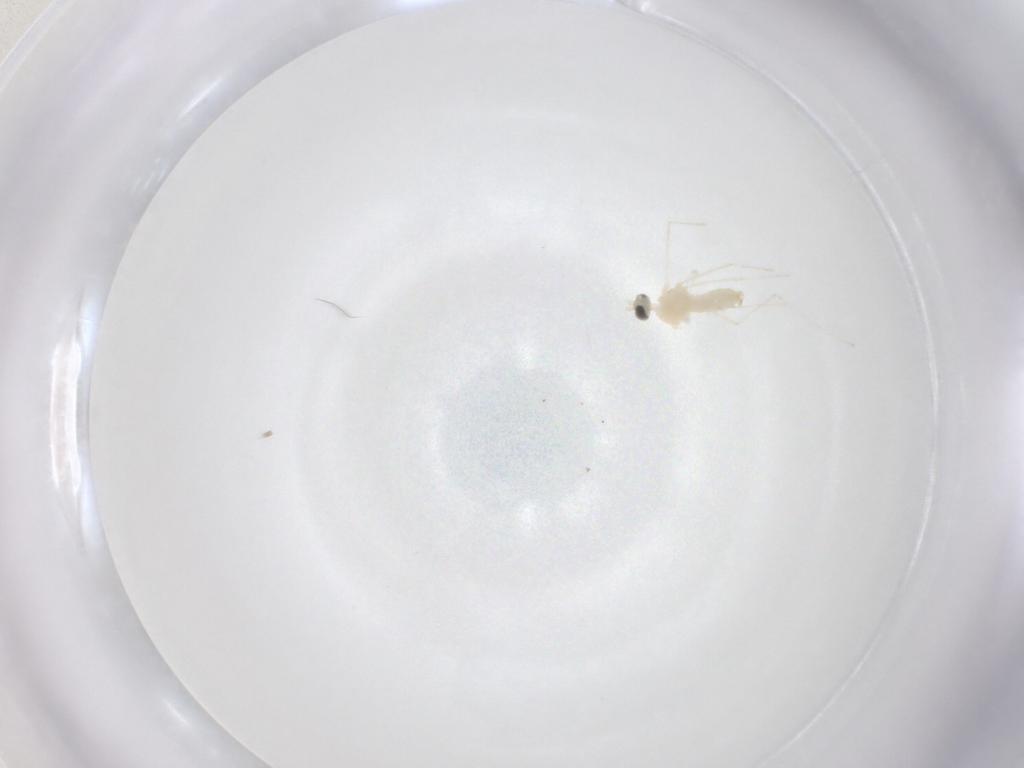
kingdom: Animalia
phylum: Arthropoda
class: Insecta
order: Diptera
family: Cecidomyiidae
